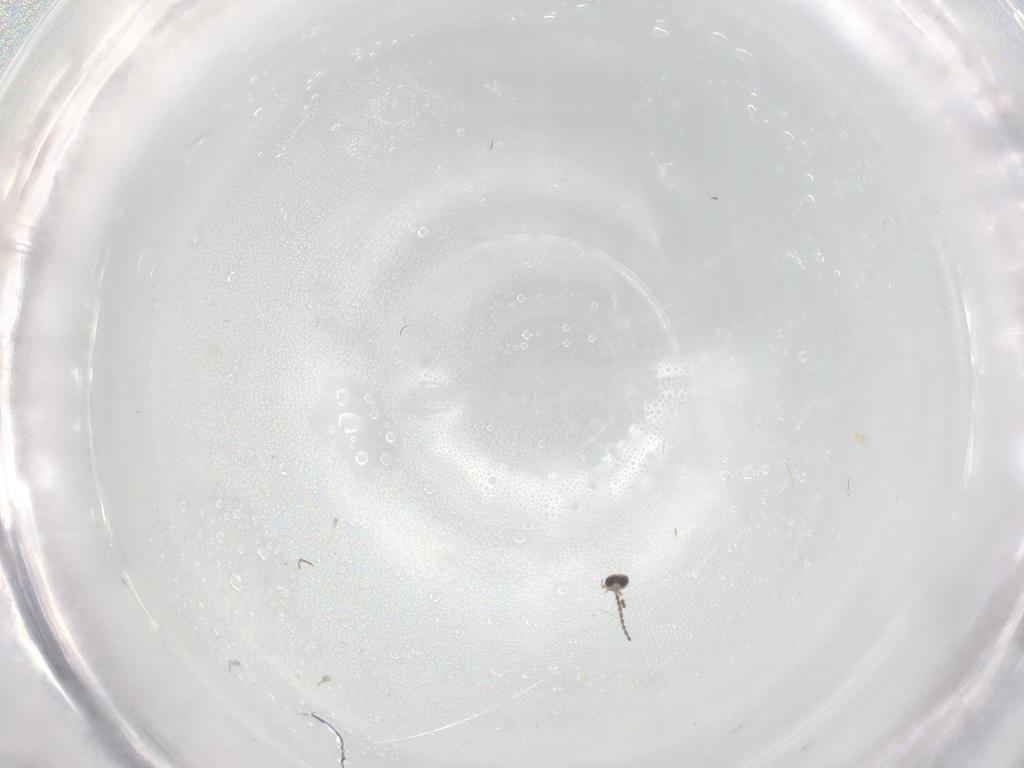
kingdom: Animalia
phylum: Arthropoda
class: Insecta
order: Diptera
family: Cecidomyiidae
